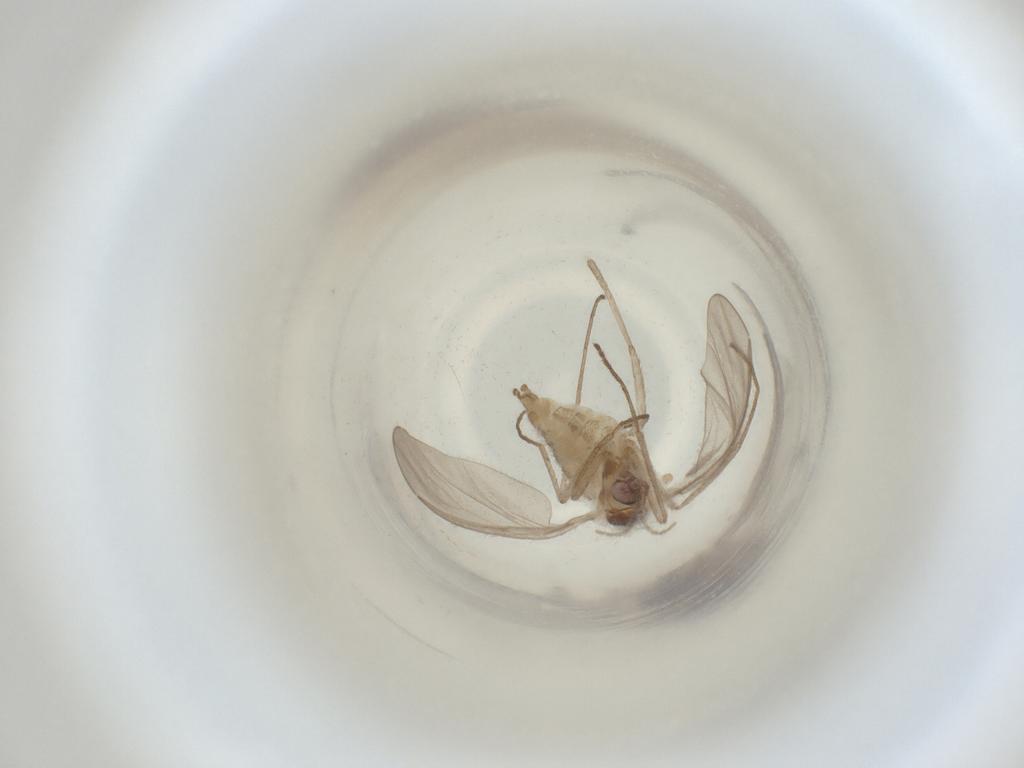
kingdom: Animalia
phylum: Arthropoda
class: Insecta
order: Diptera
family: Cecidomyiidae
